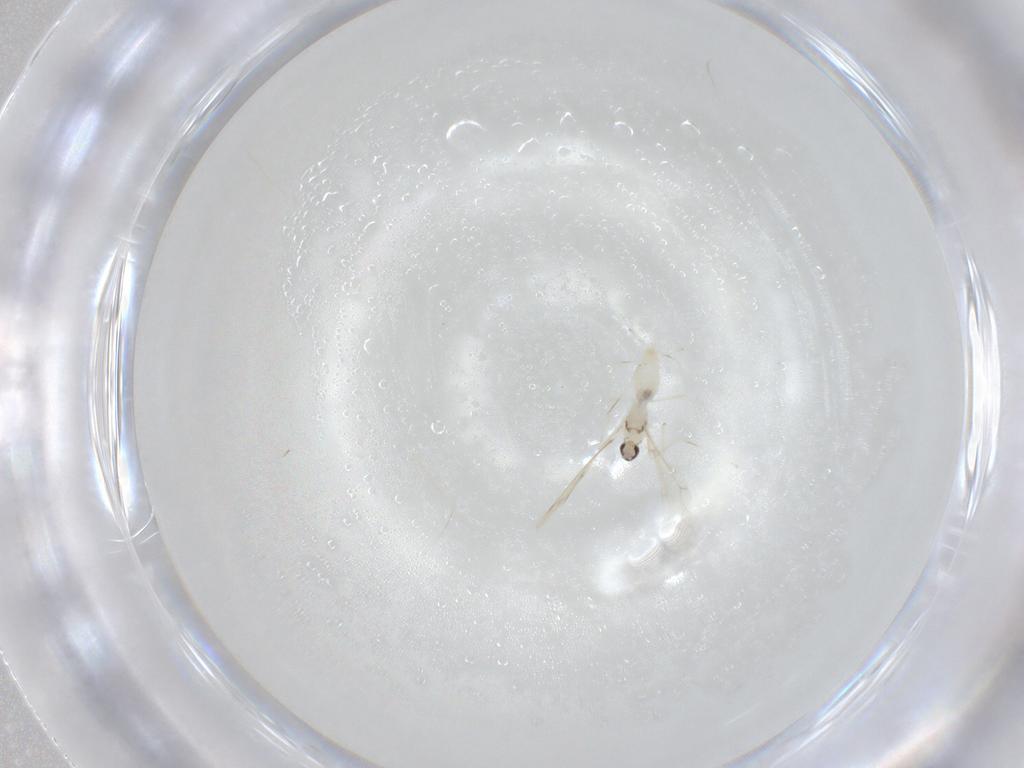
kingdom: Animalia
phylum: Arthropoda
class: Insecta
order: Diptera
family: Cecidomyiidae
